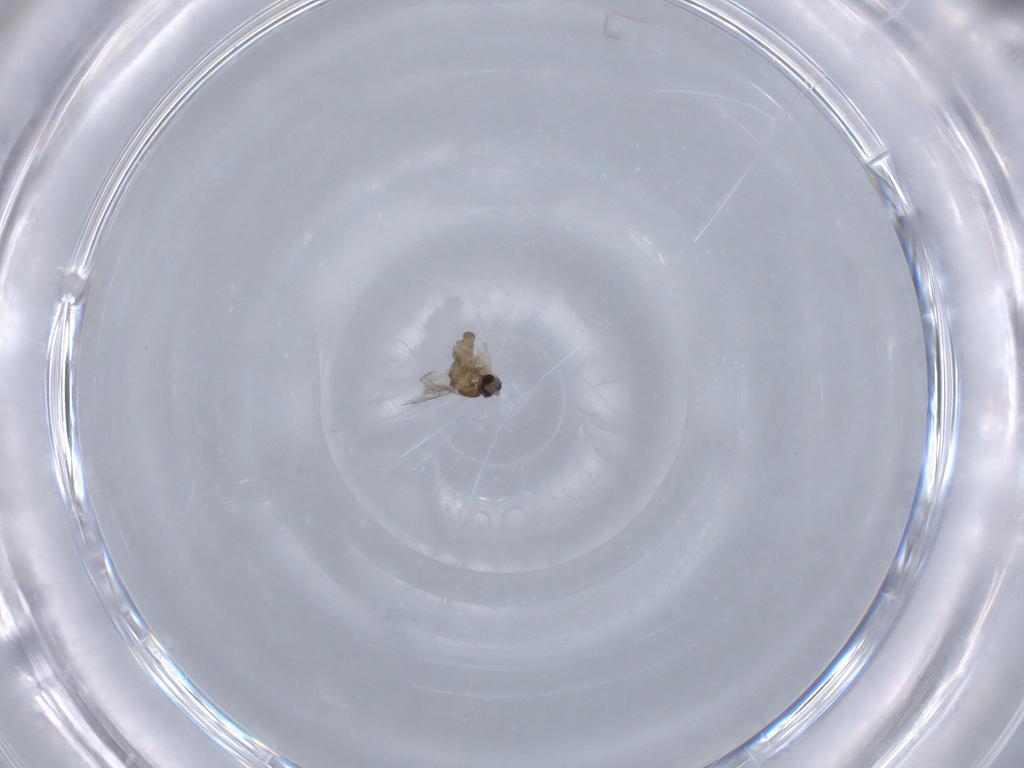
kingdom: Animalia
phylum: Arthropoda
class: Insecta
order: Diptera
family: Cecidomyiidae
